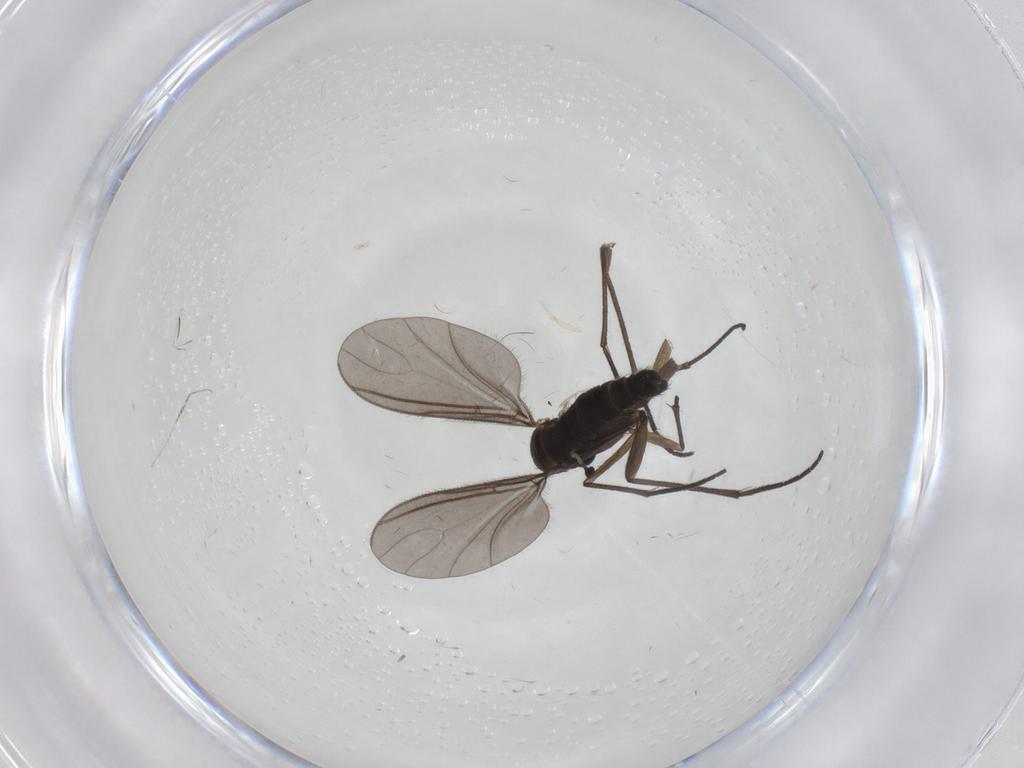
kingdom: Animalia
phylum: Arthropoda
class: Insecta
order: Diptera
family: Sciaridae
